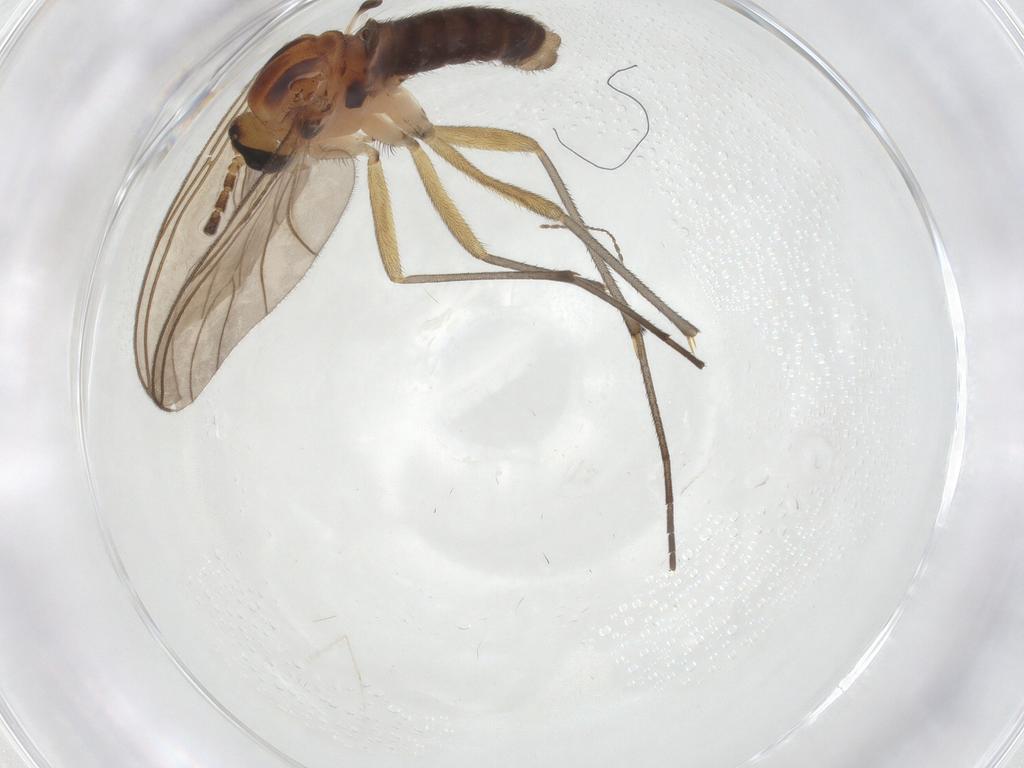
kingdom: Animalia
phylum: Arthropoda
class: Insecta
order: Diptera
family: Sciaridae
